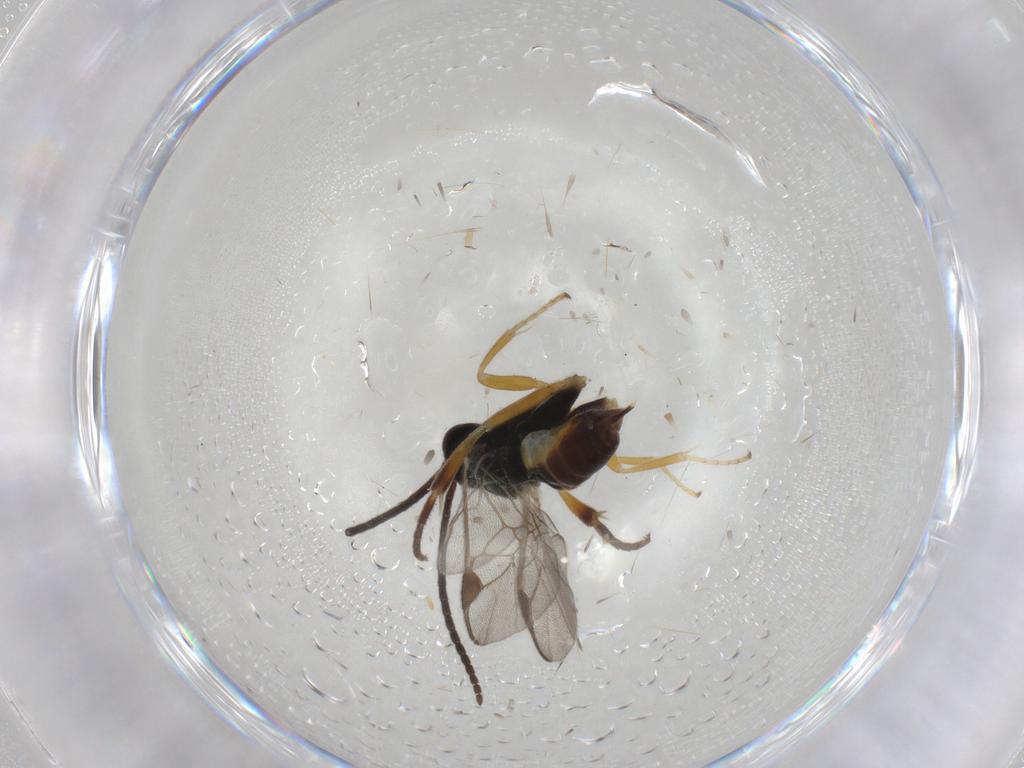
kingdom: Animalia
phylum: Arthropoda
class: Insecta
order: Hymenoptera
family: Braconidae
